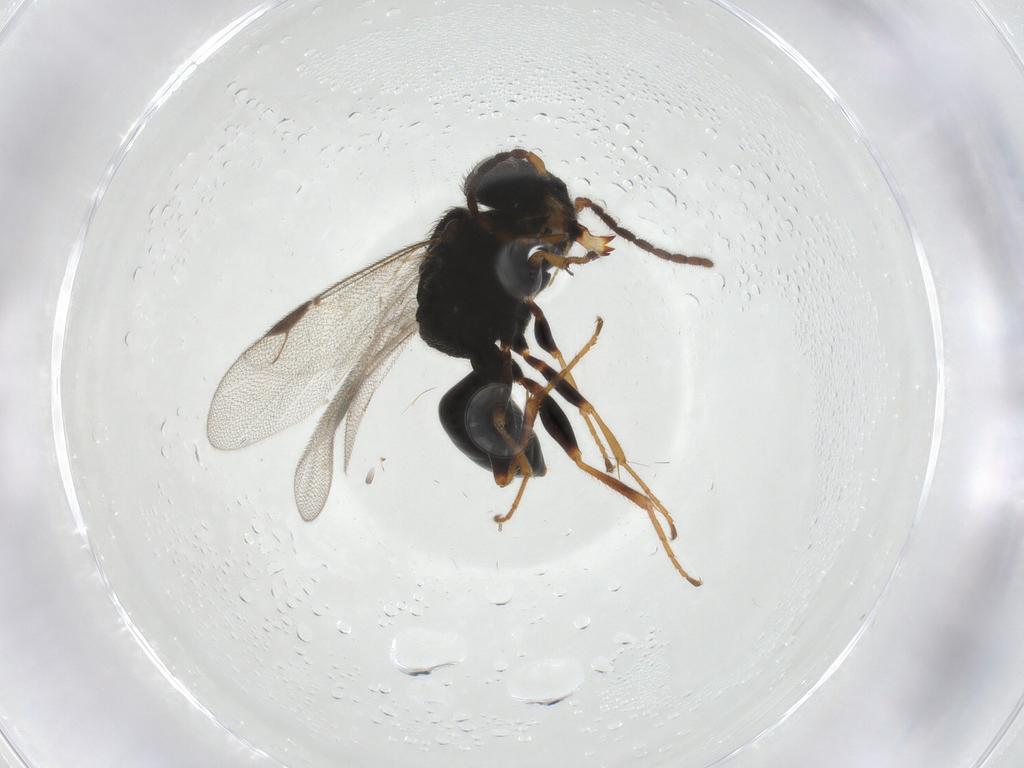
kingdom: Animalia
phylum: Arthropoda
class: Insecta
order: Hymenoptera
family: Dryinidae
